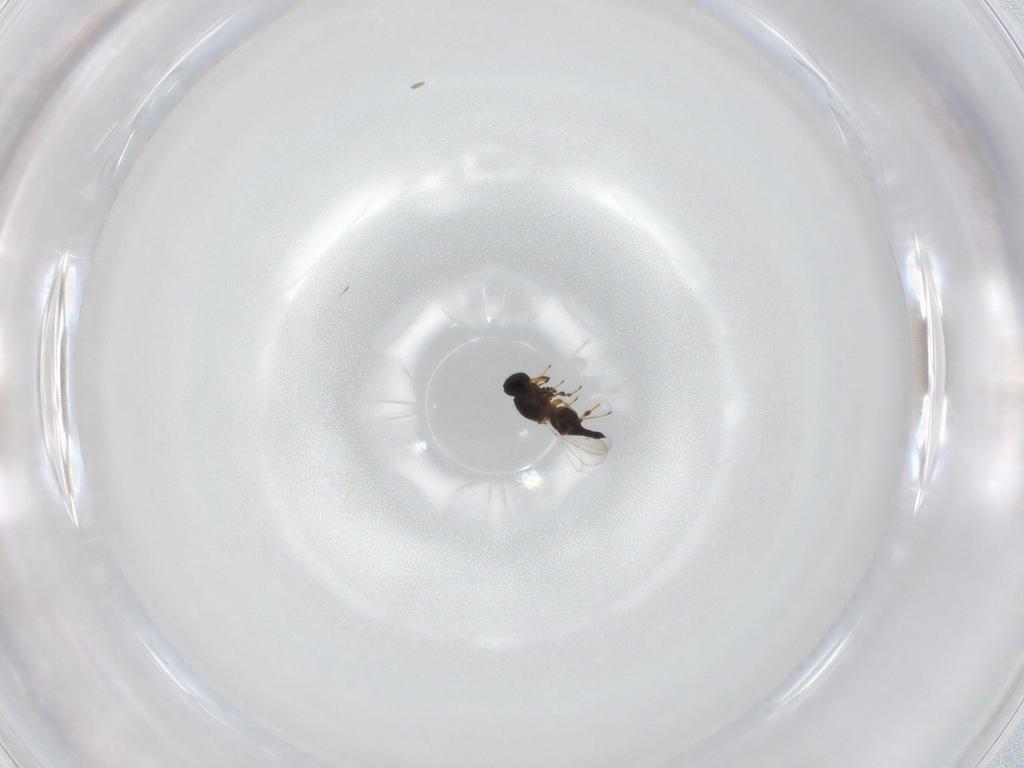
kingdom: Animalia
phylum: Arthropoda
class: Insecta
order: Hymenoptera
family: Platygastridae
